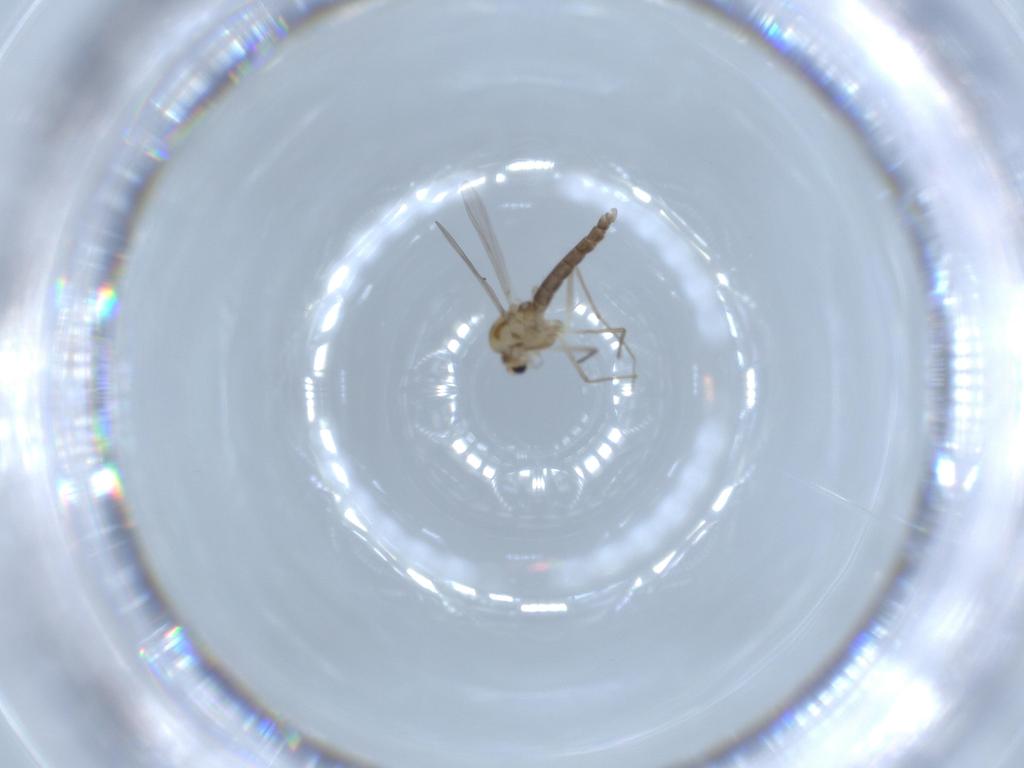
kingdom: Animalia
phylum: Arthropoda
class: Insecta
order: Diptera
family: Chironomidae
